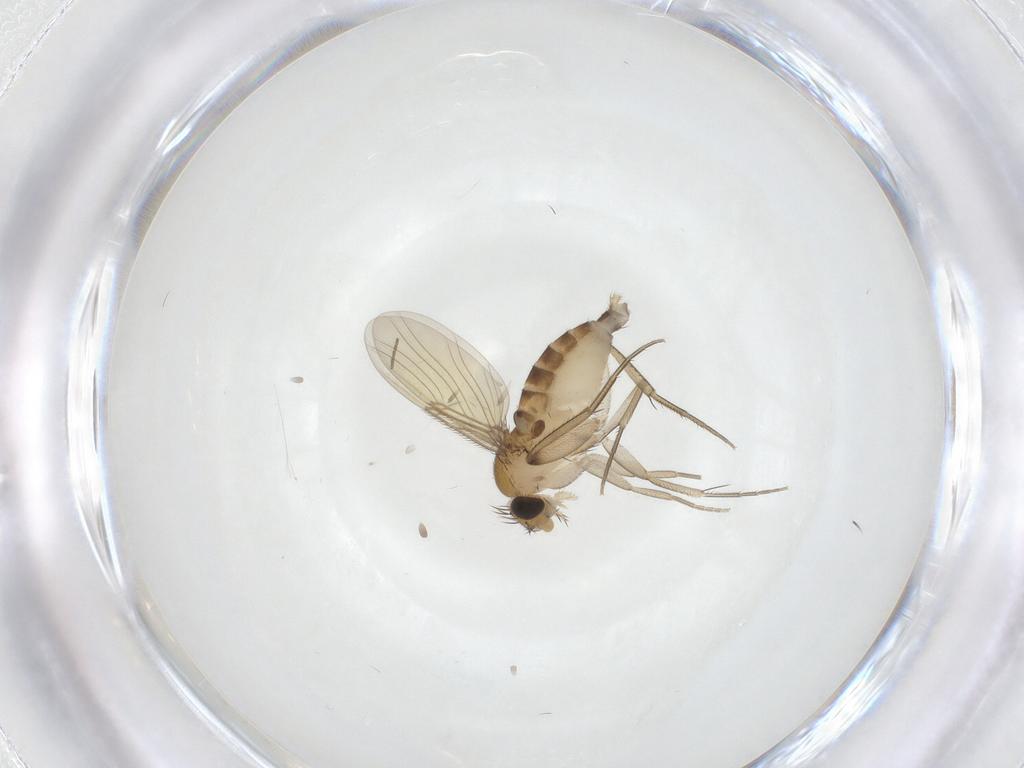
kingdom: Animalia
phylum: Arthropoda
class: Insecta
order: Diptera
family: Phoridae
